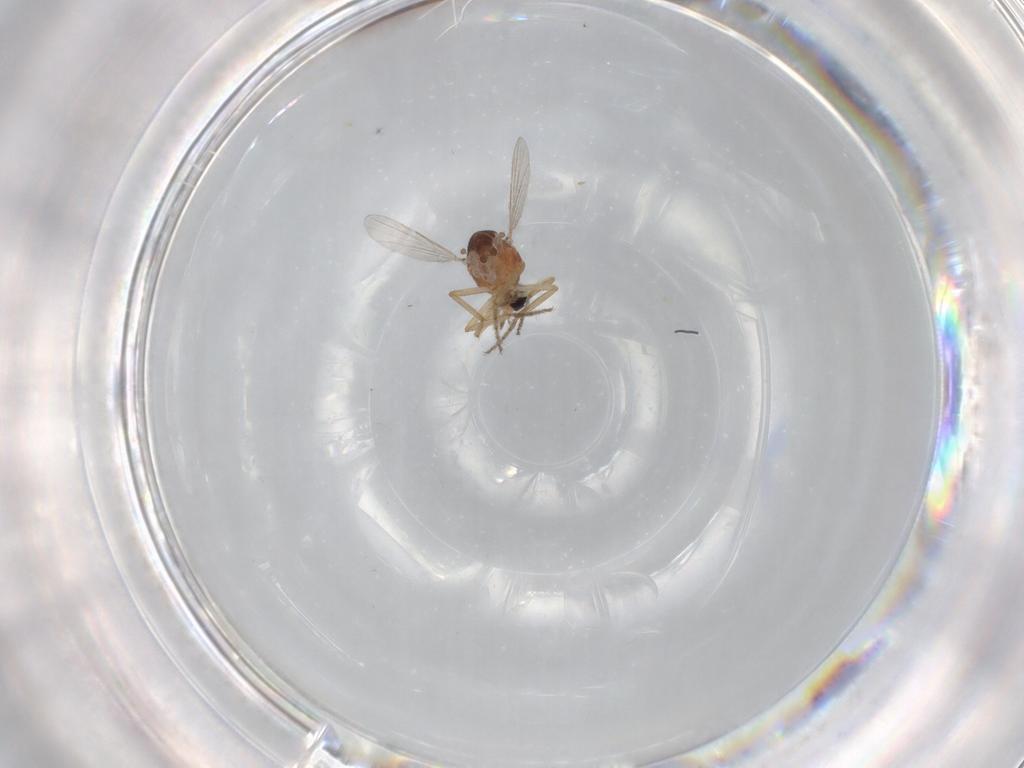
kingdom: Animalia
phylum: Arthropoda
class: Insecta
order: Diptera
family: Ceratopogonidae
